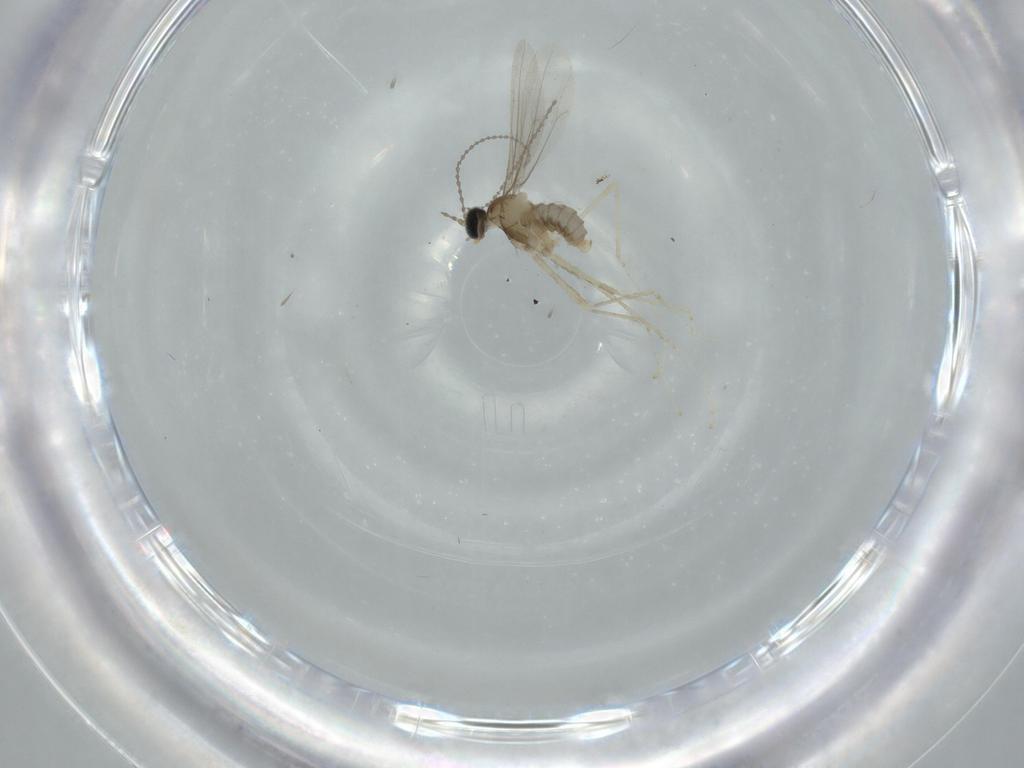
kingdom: Animalia
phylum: Arthropoda
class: Insecta
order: Diptera
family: Cecidomyiidae
